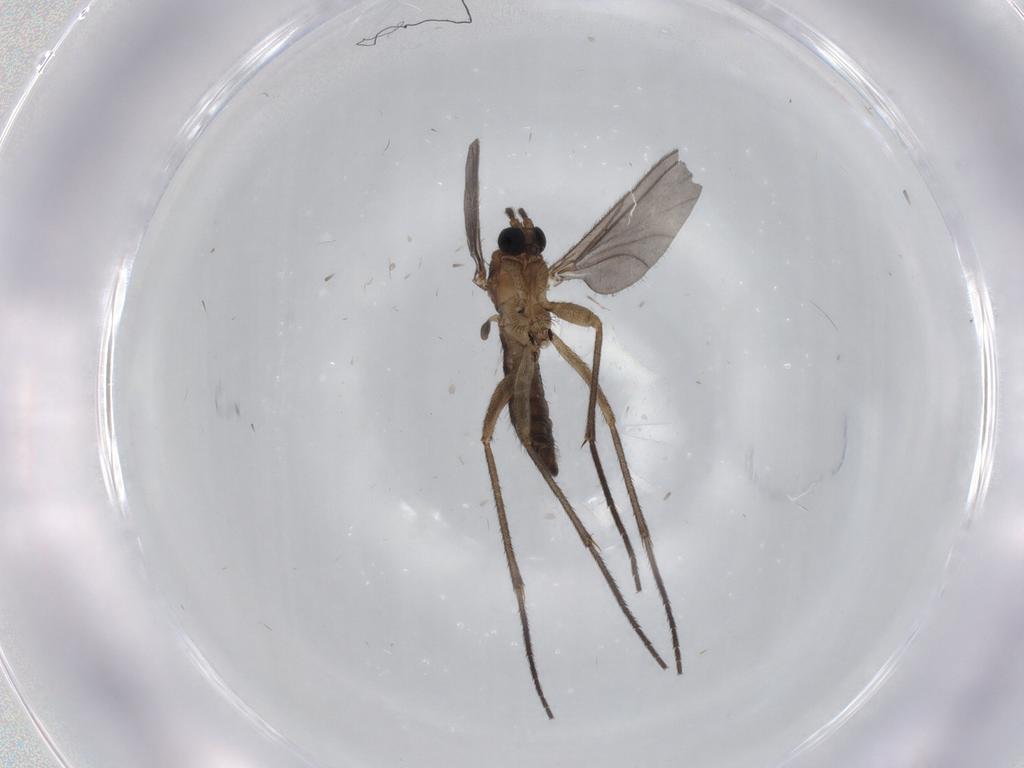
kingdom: Animalia
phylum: Arthropoda
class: Insecta
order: Diptera
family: Sciaridae
